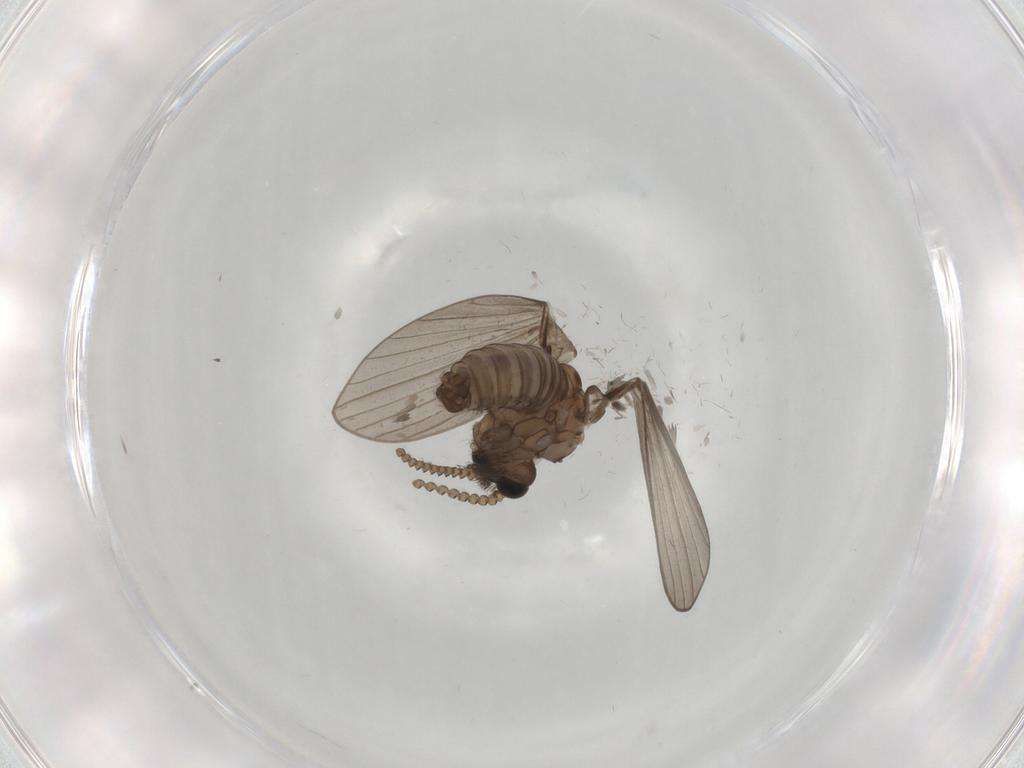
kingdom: Animalia
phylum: Arthropoda
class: Insecta
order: Diptera
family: Psychodidae
